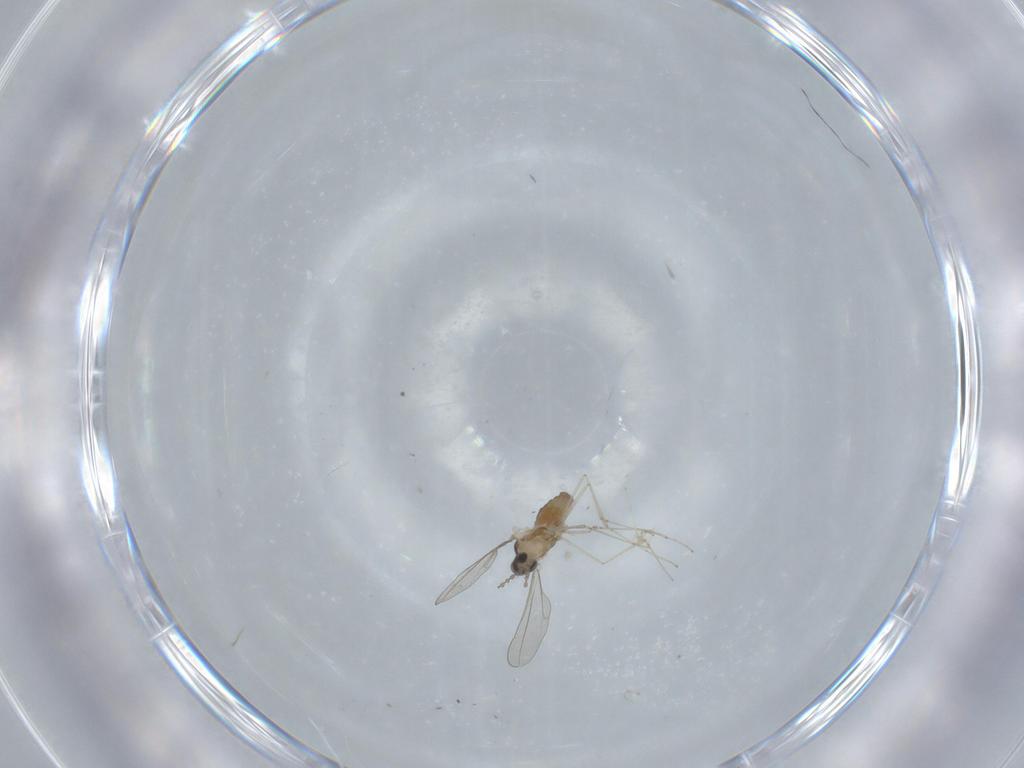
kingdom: Animalia
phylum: Arthropoda
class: Insecta
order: Diptera
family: Cecidomyiidae
